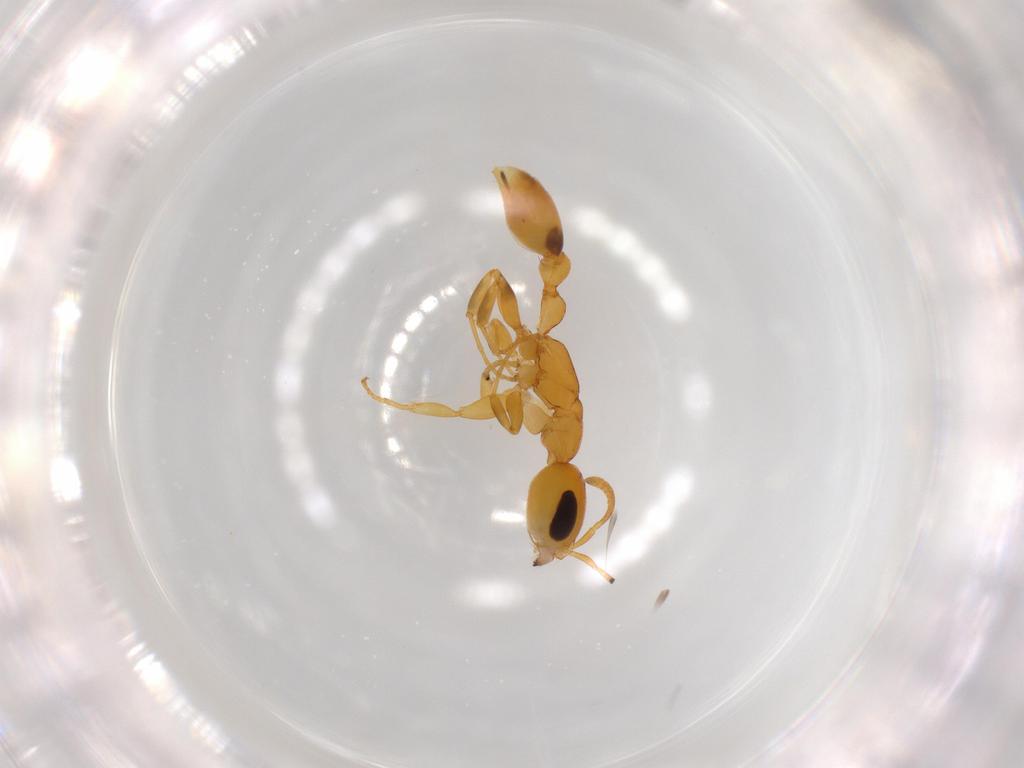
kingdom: Animalia
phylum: Arthropoda
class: Insecta
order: Hymenoptera
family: Formicidae
